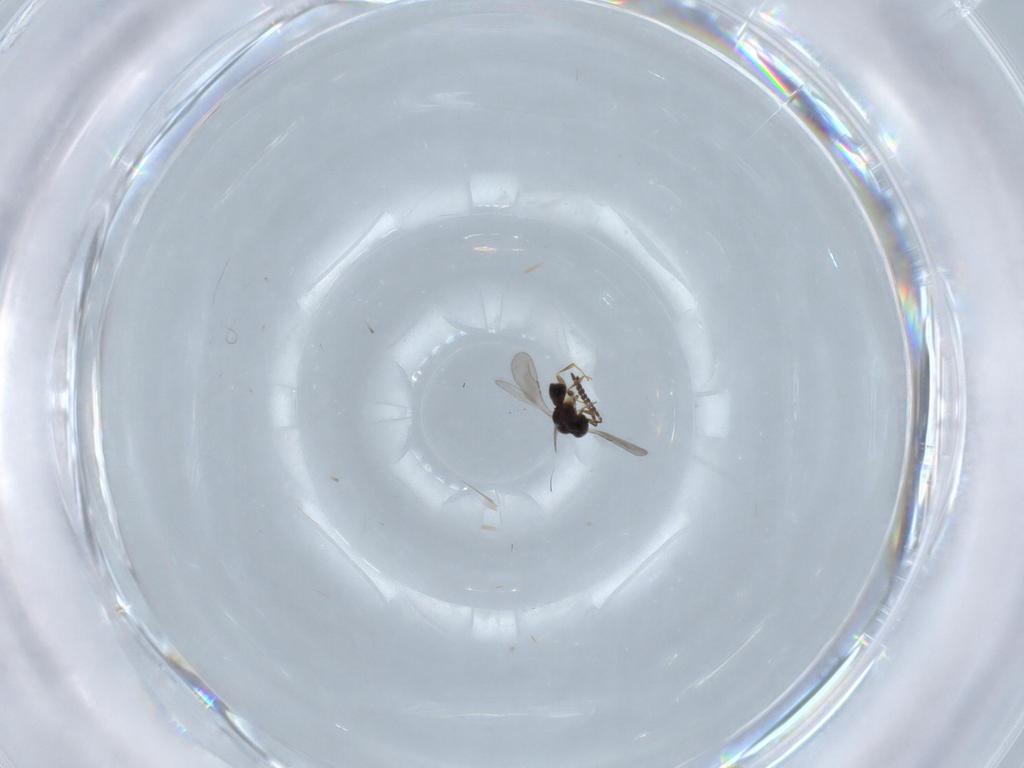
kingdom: Animalia
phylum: Arthropoda
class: Insecta
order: Hymenoptera
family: Ceraphronidae
